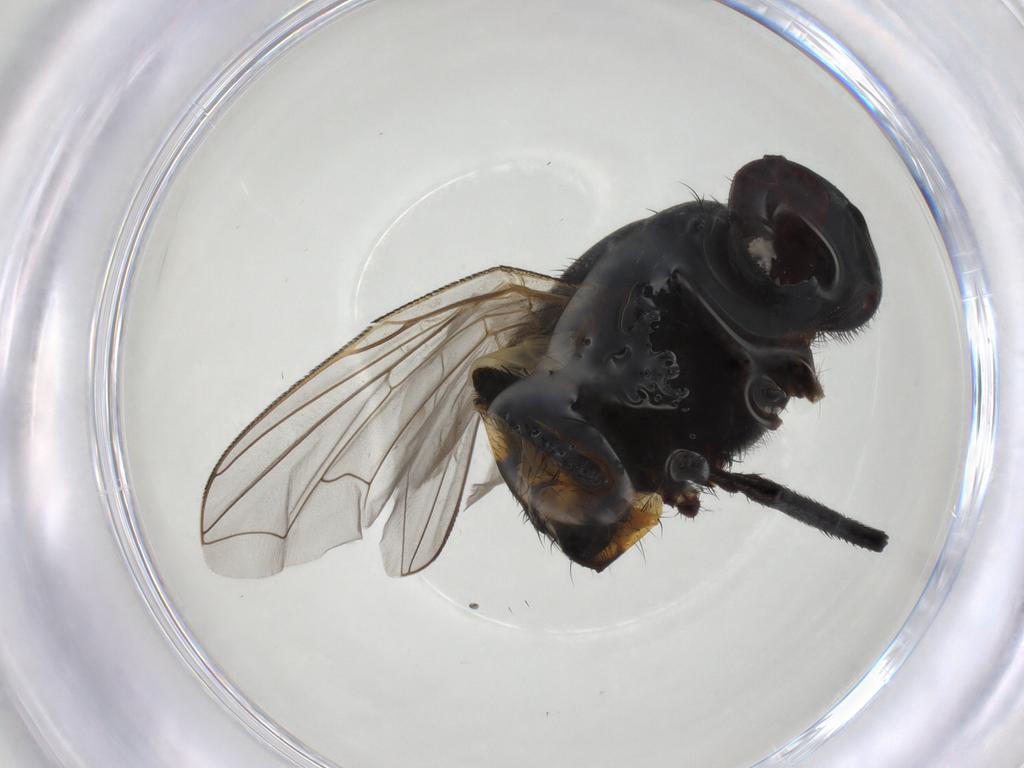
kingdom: Animalia
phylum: Arthropoda
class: Insecta
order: Diptera
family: Muscidae
